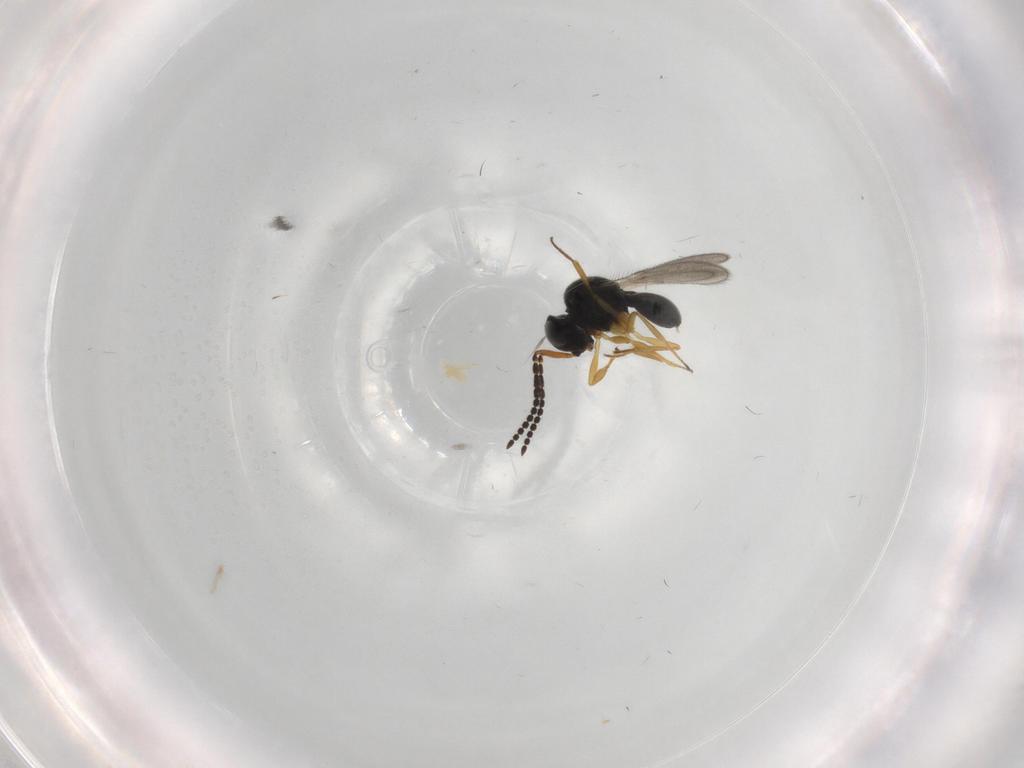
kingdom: Animalia
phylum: Arthropoda
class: Insecta
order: Hymenoptera
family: Scelionidae
